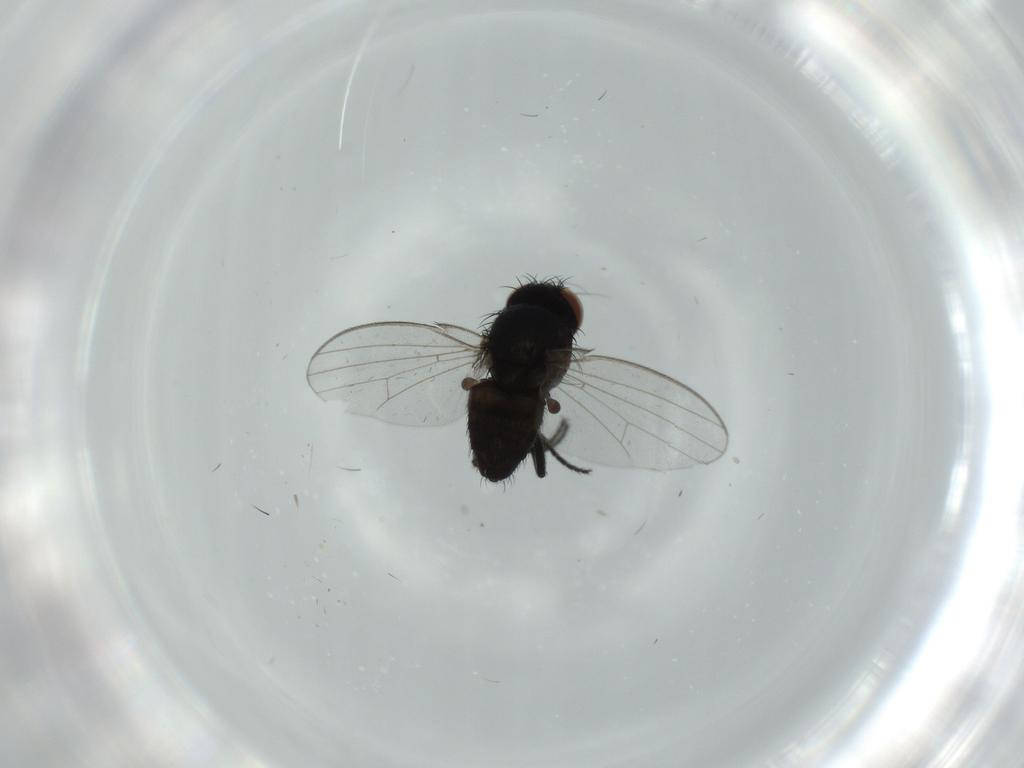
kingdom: Animalia
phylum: Arthropoda
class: Insecta
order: Diptera
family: Milichiidae
